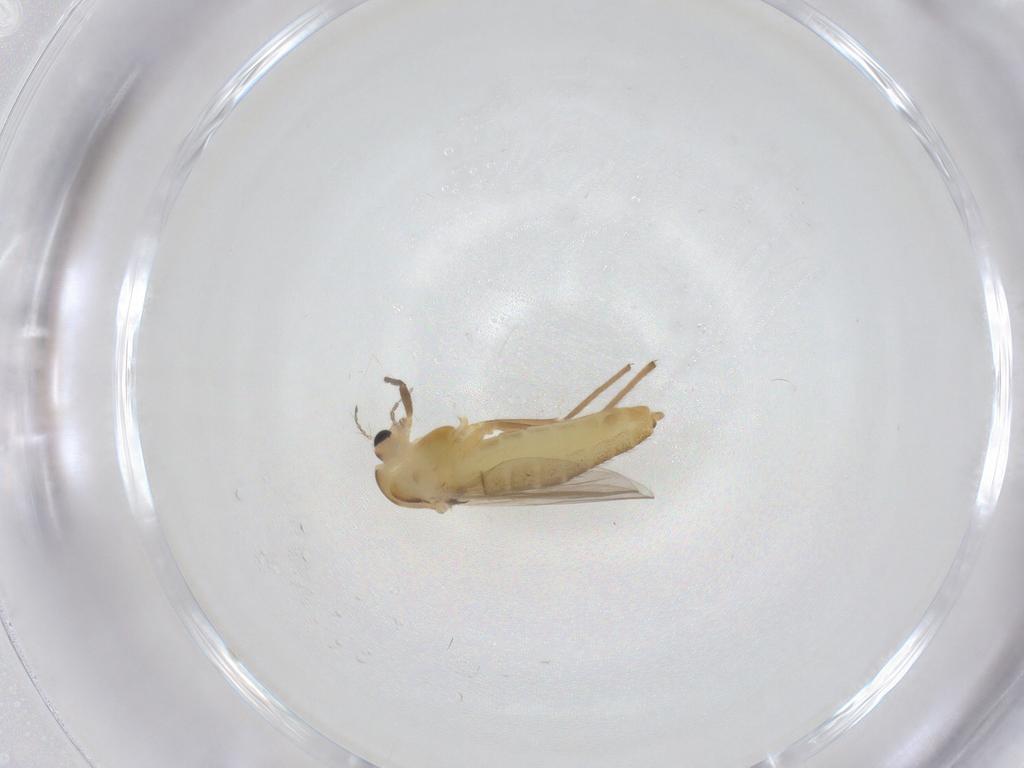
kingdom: Animalia
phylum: Arthropoda
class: Insecta
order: Diptera
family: Chironomidae
